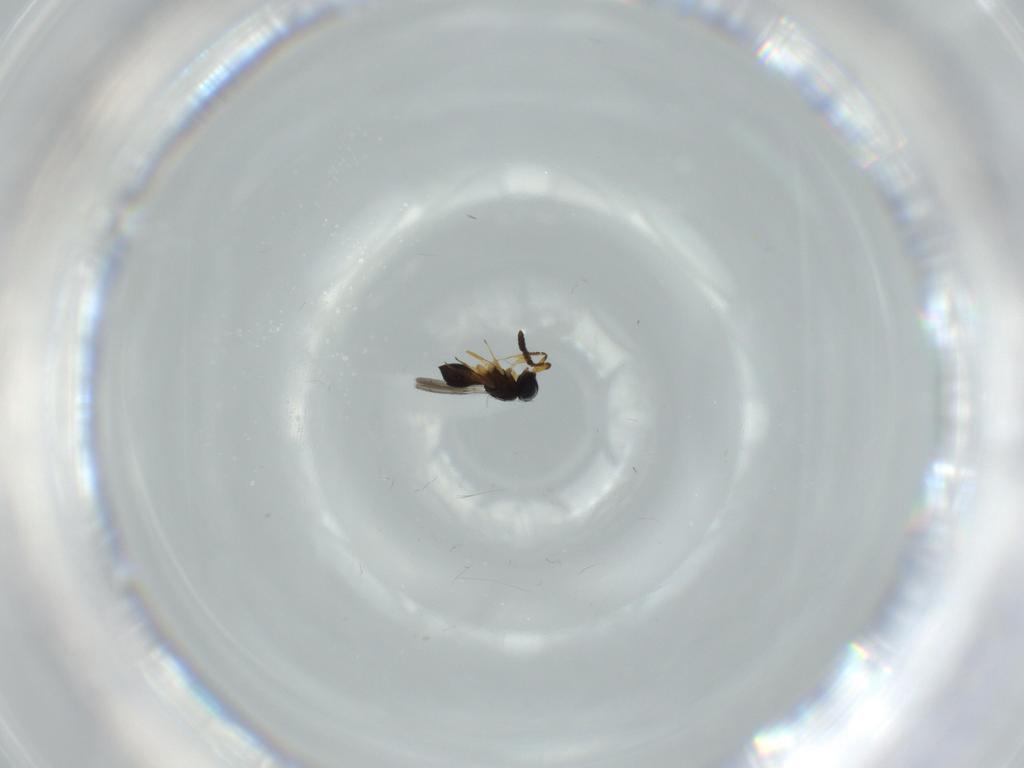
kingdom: Animalia
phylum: Arthropoda
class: Insecta
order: Hymenoptera
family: Scelionidae
